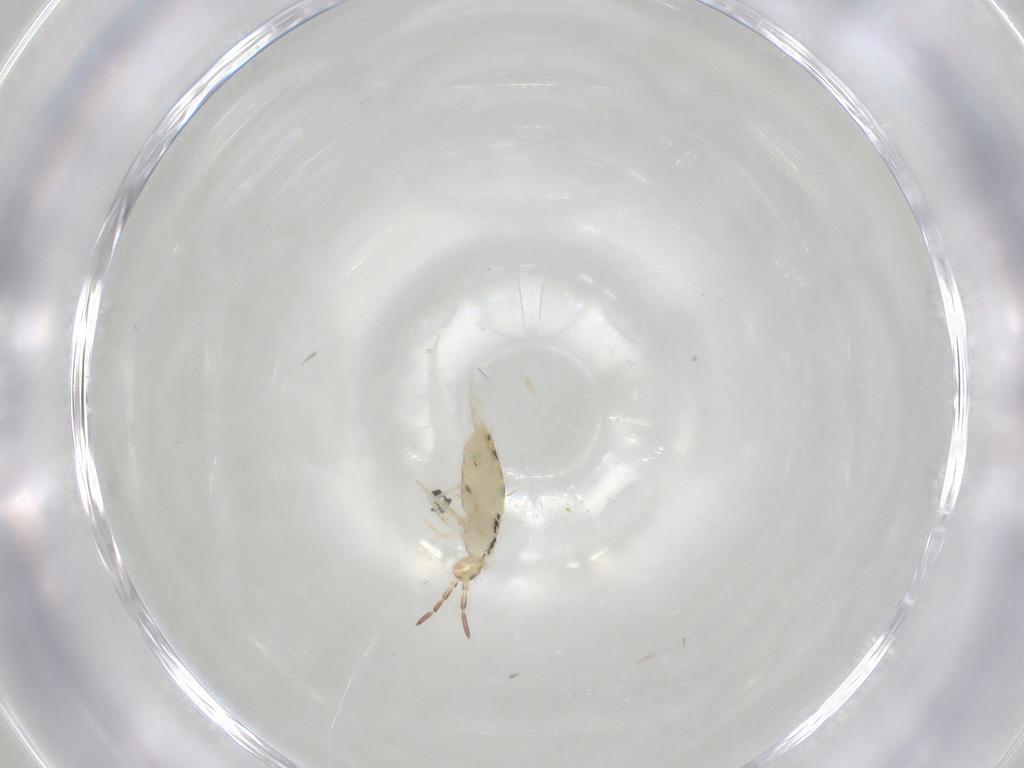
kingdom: Animalia
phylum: Arthropoda
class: Collembola
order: Entomobryomorpha
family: Entomobryidae
